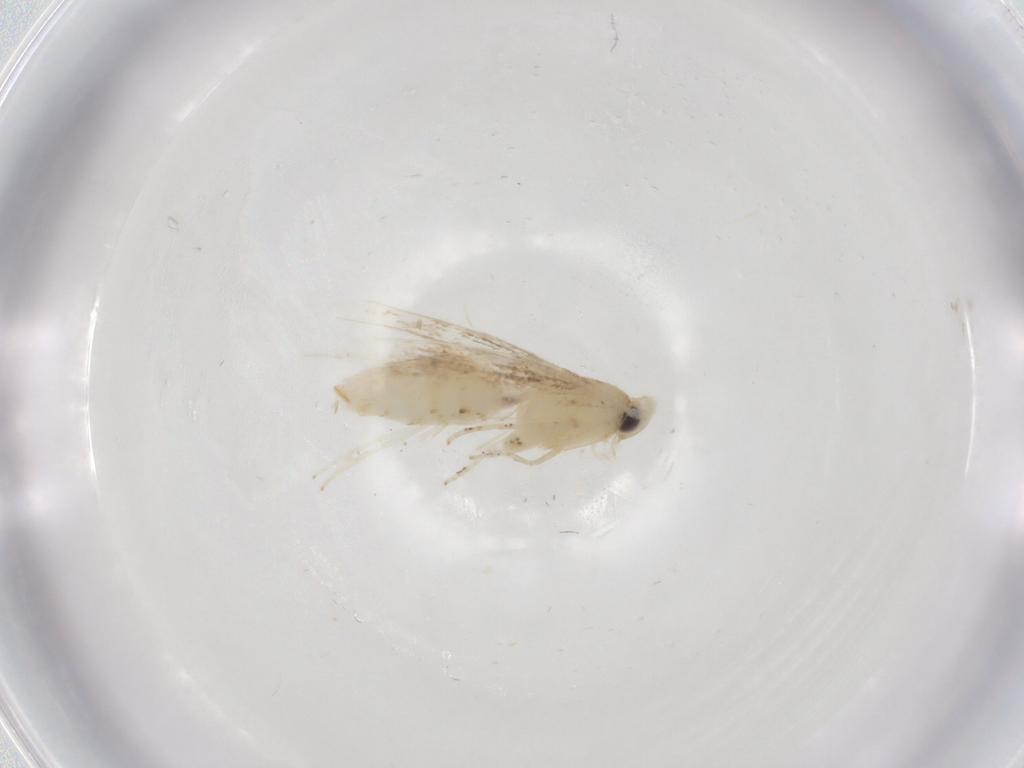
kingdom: Animalia
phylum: Arthropoda
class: Insecta
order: Lepidoptera
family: Gracillariidae
